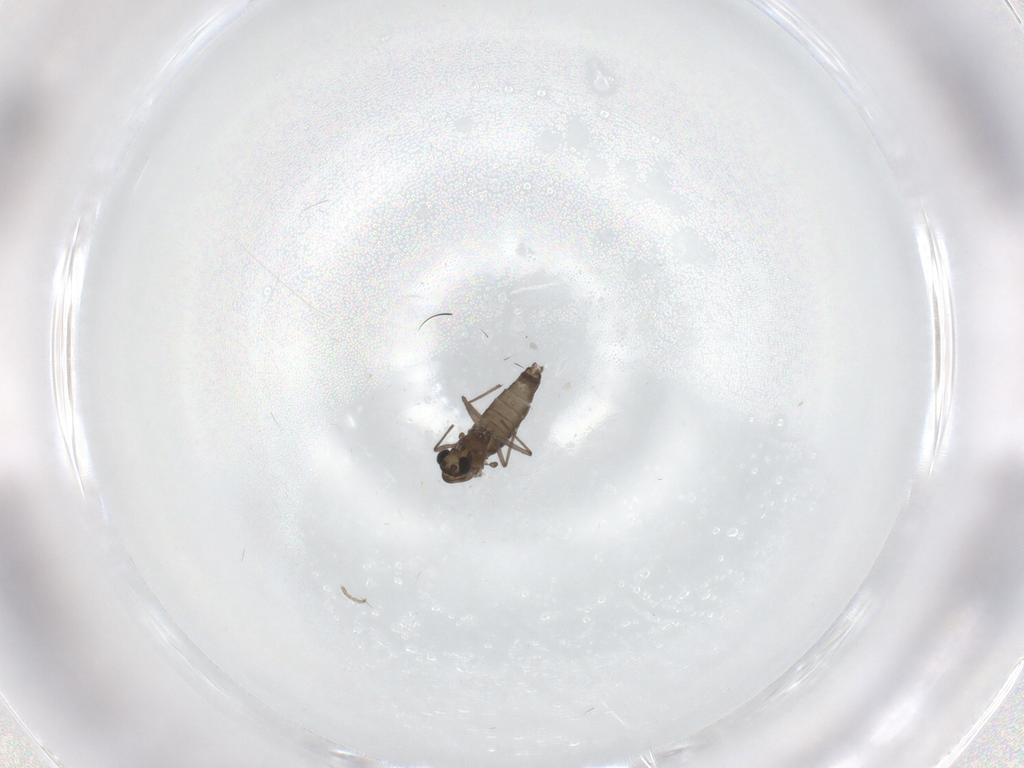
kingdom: Animalia
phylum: Arthropoda
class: Insecta
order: Diptera
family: Chironomidae
